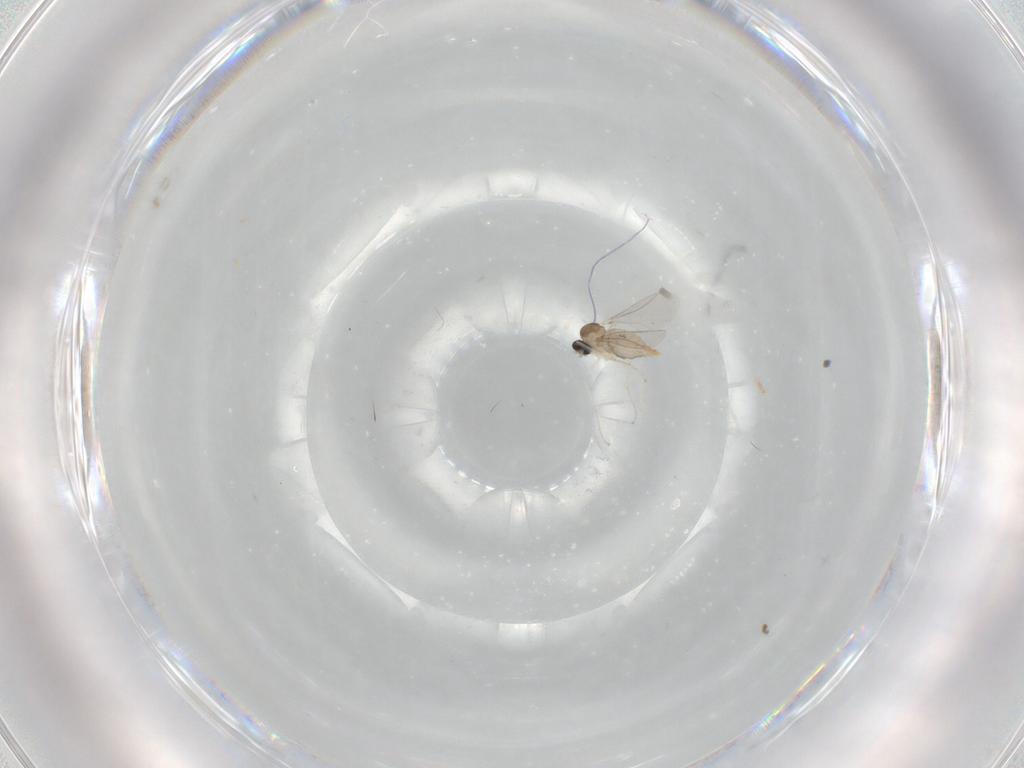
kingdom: Animalia
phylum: Arthropoda
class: Insecta
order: Diptera
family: Cecidomyiidae
